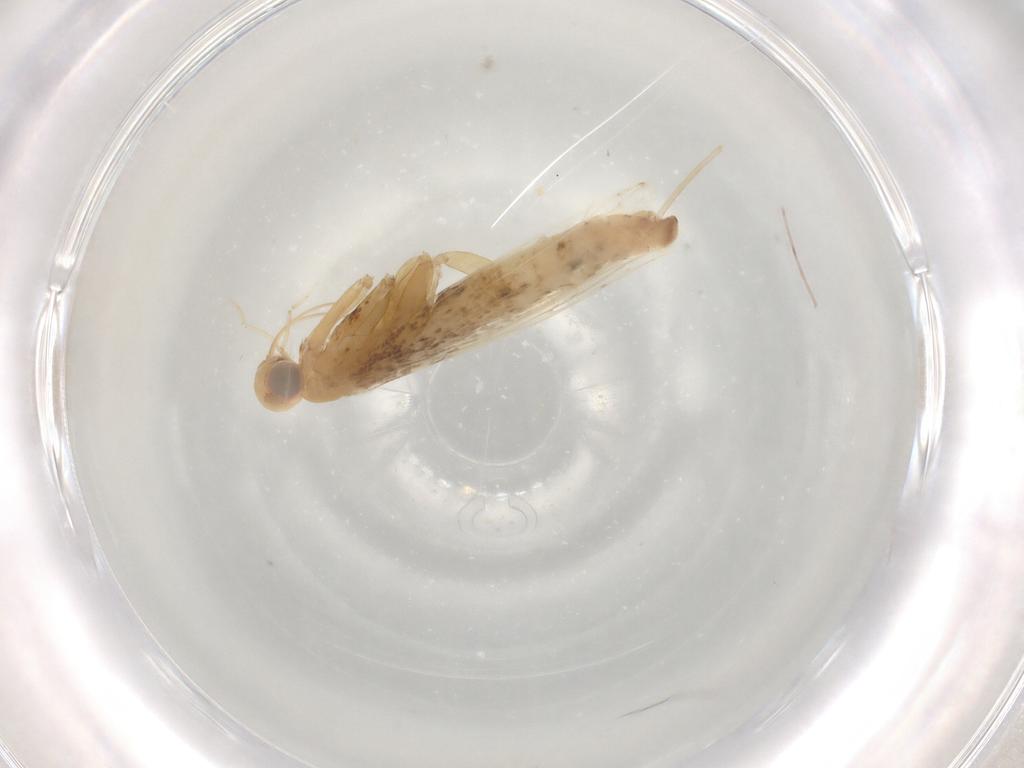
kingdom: Animalia
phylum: Arthropoda
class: Insecta
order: Lepidoptera
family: Gracillariidae
